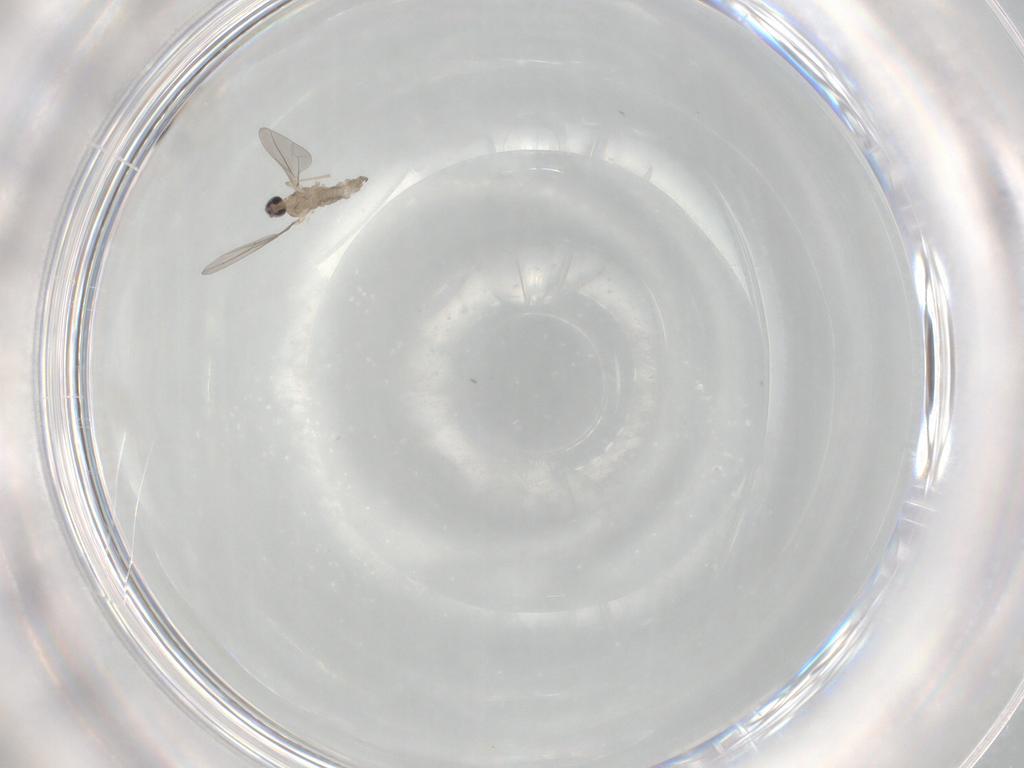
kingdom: Animalia
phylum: Arthropoda
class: Insecta
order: Diptera
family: Cecidomyiidae
